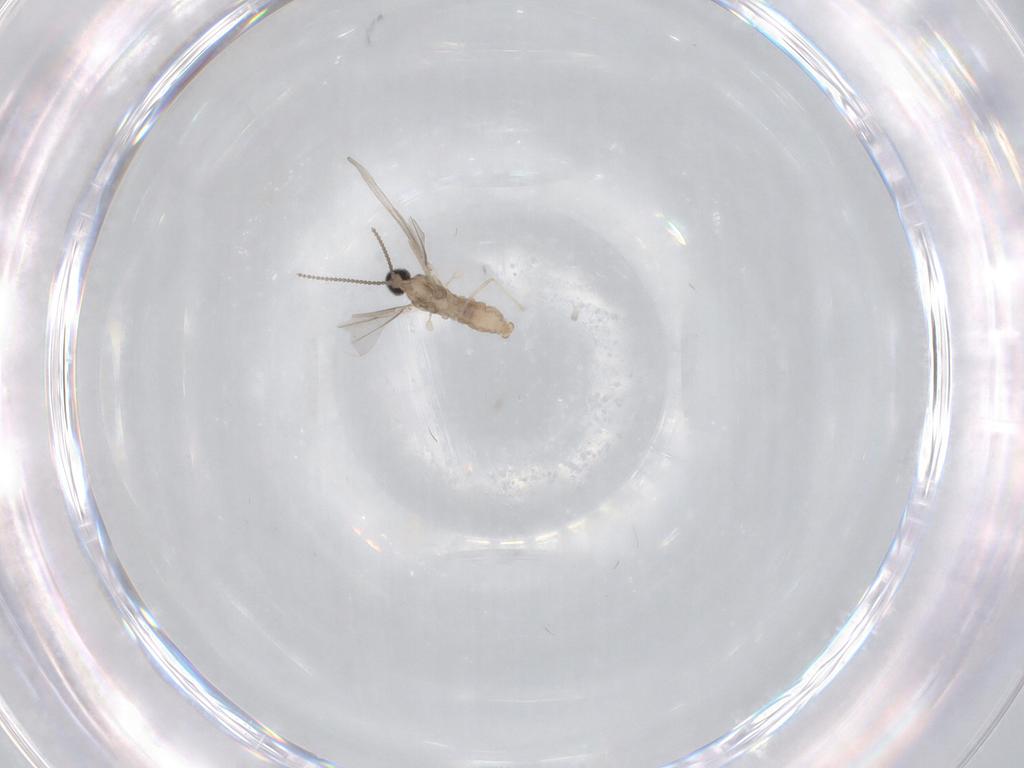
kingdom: Animalia
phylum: Arthropoda
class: Insecta
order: Diptera
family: Cecidomyiidae
